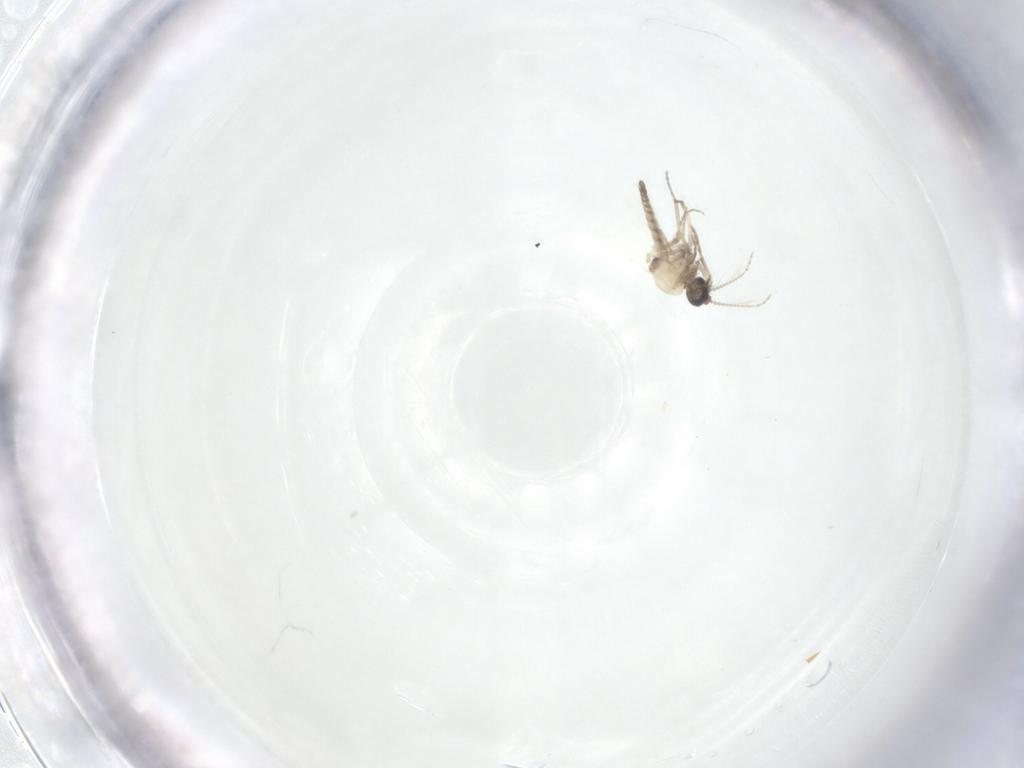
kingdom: Animalia
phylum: Arthropoda
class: Insecta
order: Diptera
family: Ceratopogonidae
